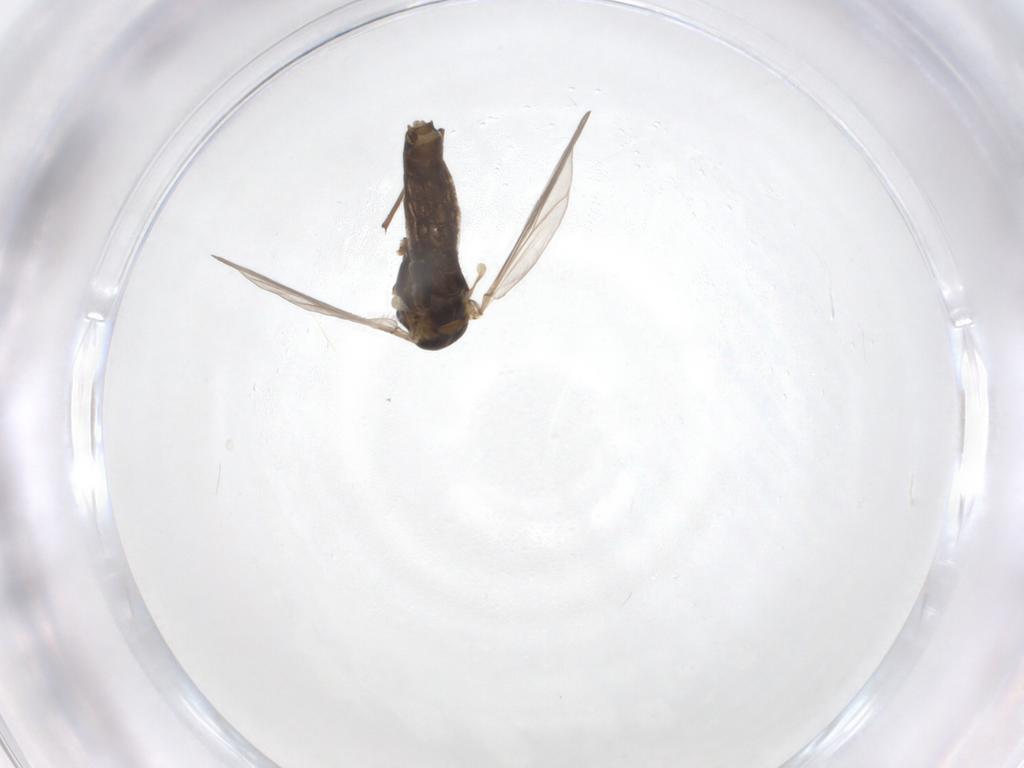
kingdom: Animalia
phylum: Arthropoda
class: Insecta
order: Diptera
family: Chironomidae
